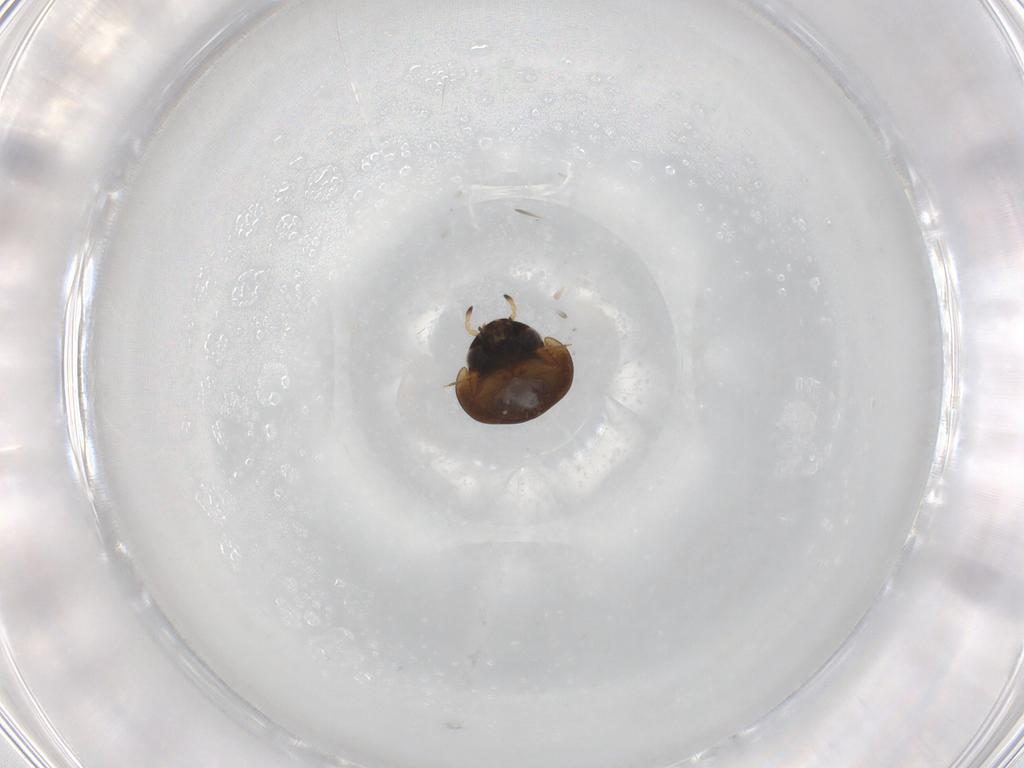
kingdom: Animalia
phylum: Arthropoda
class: Insecta
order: Coleoptera
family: Hydrophilidae
